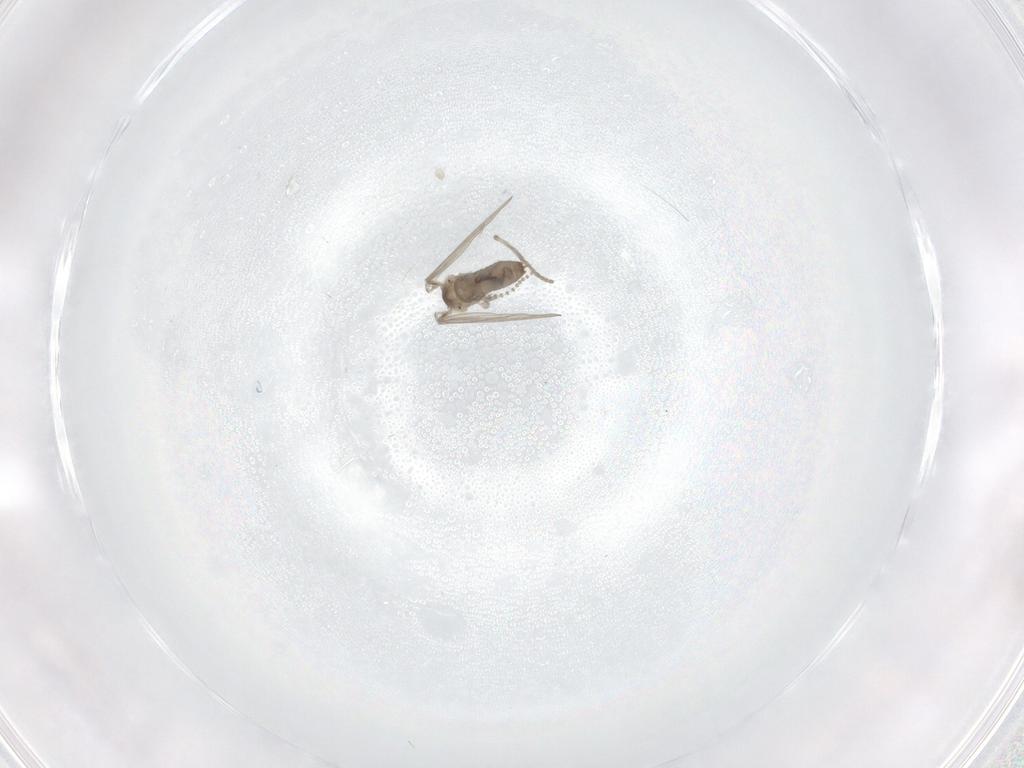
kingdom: Animalia
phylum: Arthropoda
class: Insecta
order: Diptera
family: Psychodidae
